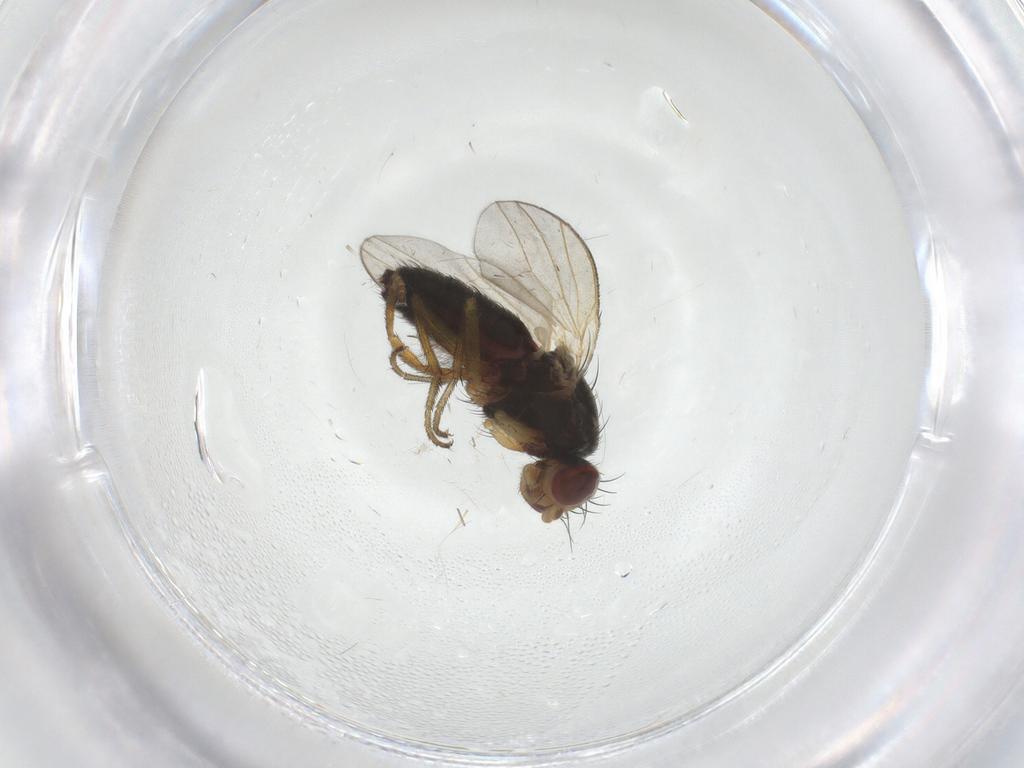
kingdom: Animalia
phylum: Arthropoda
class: Insecta
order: Diptera
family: Heleomyzidae
